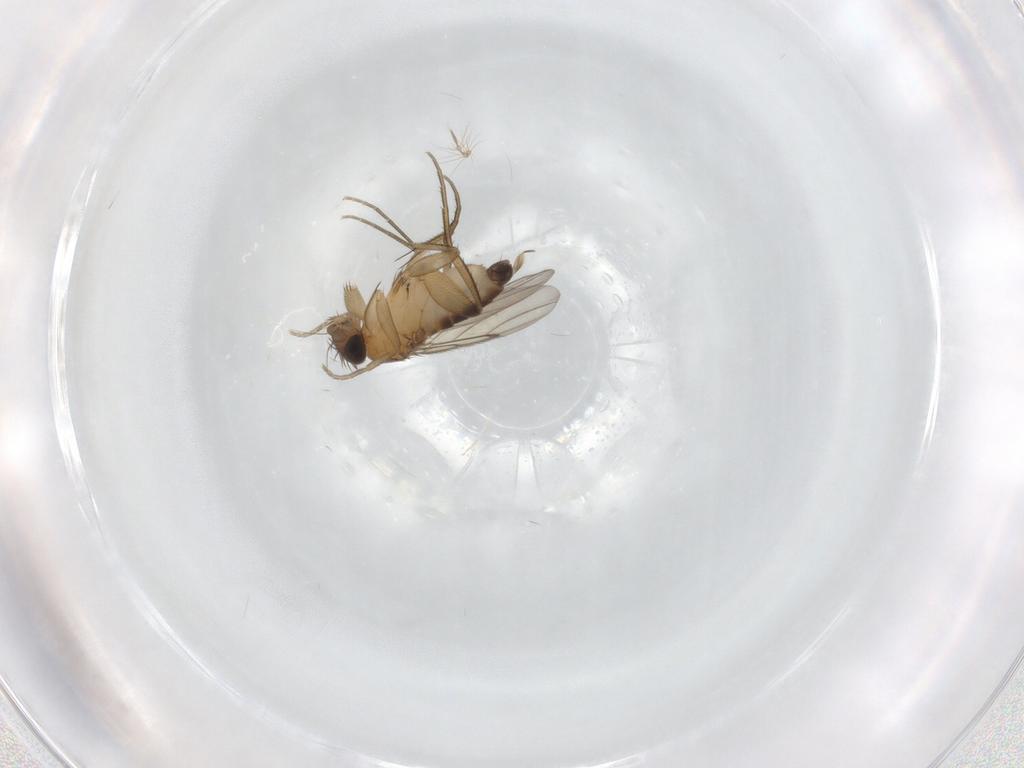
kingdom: Animalia
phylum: Arthropoda
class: Insecta
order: Diptera
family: Phoridae
